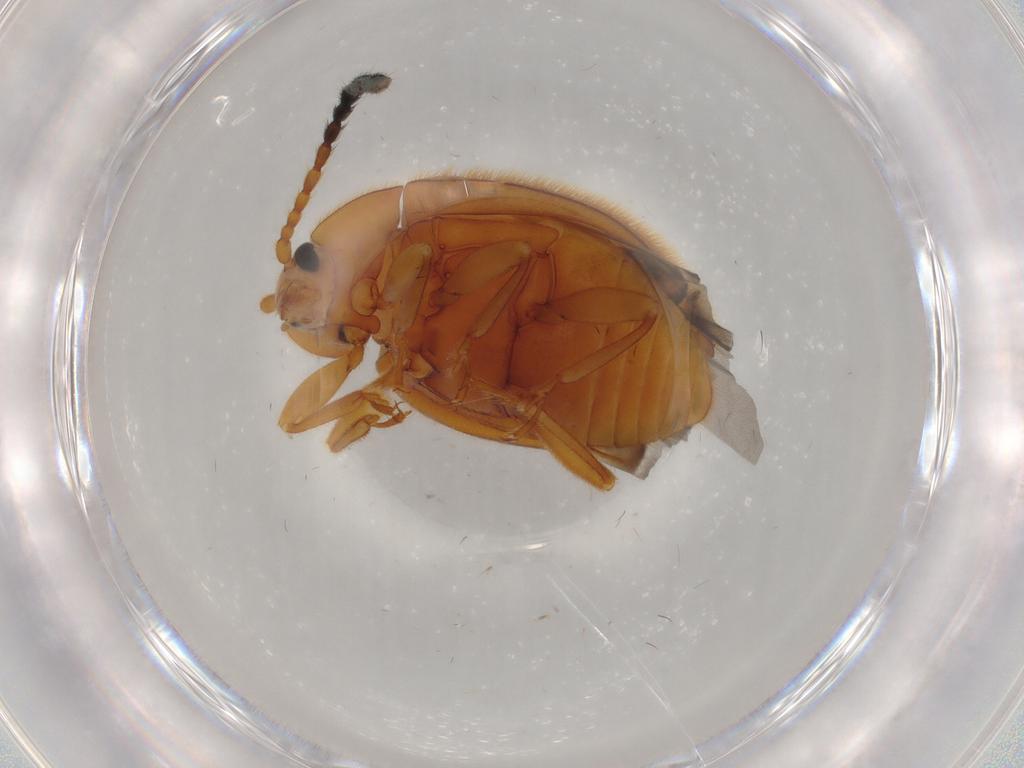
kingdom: Animalia
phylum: Arthropoda
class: Insecta
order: Coleoptera
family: Endomychidae
